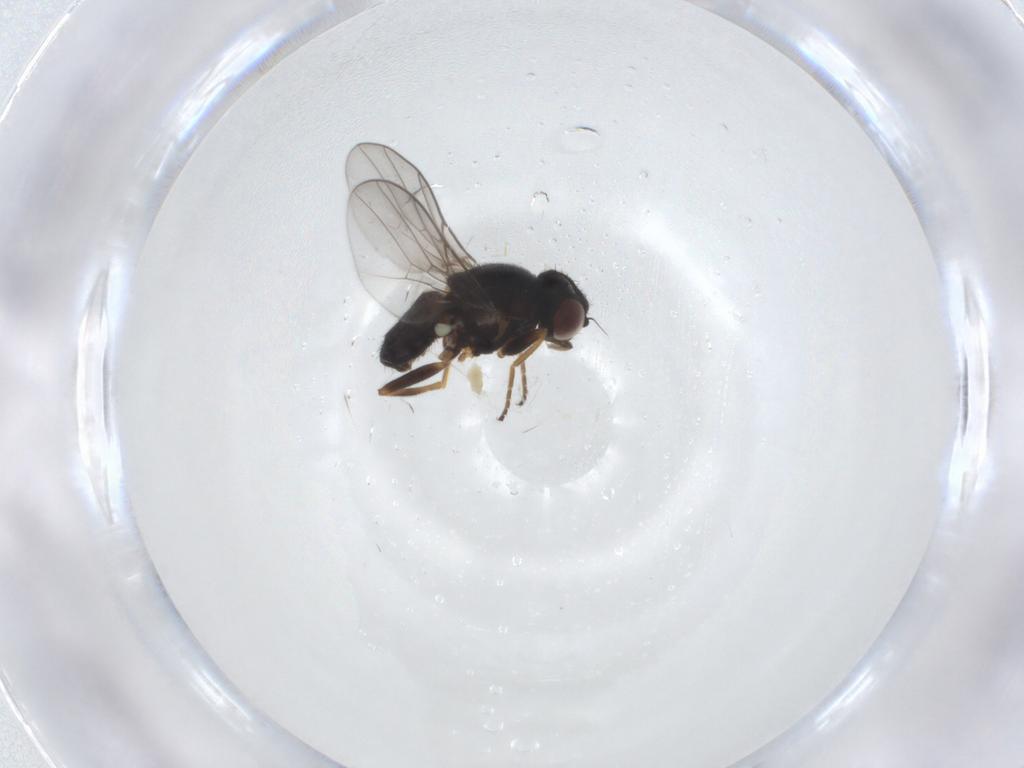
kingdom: Animalia
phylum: Arthropoda
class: Insecta
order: Diptera
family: Chloropidae
